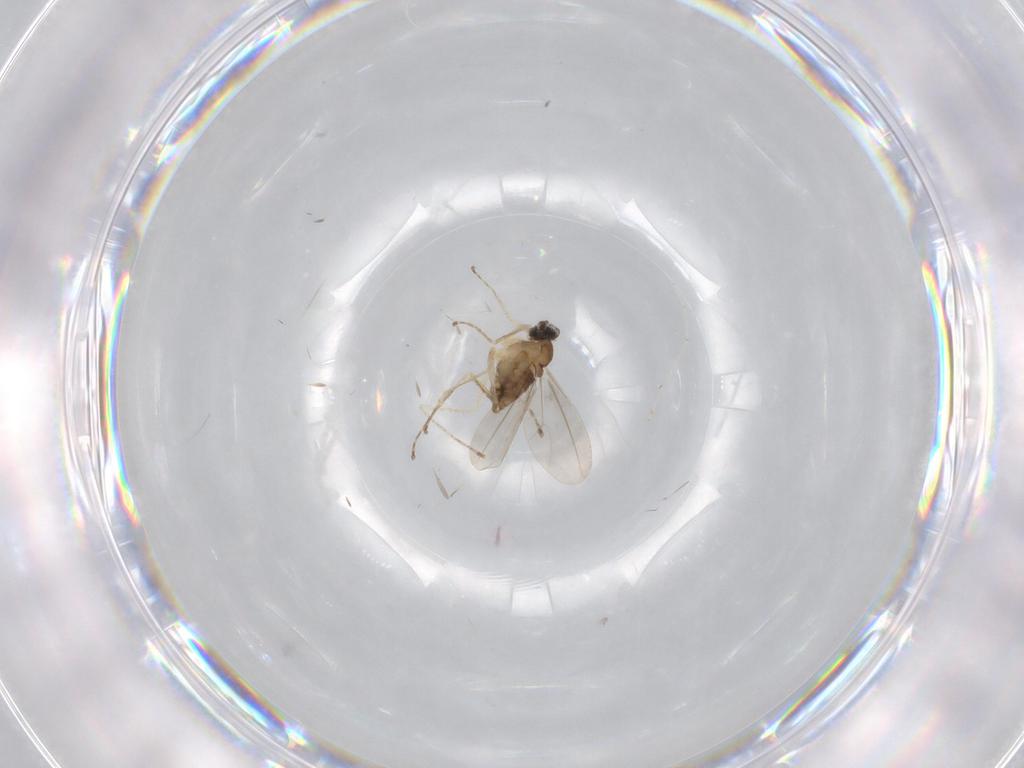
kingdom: Animalia
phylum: Arthropoda
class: Insecta
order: Diptera
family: Cecidomyiidae
